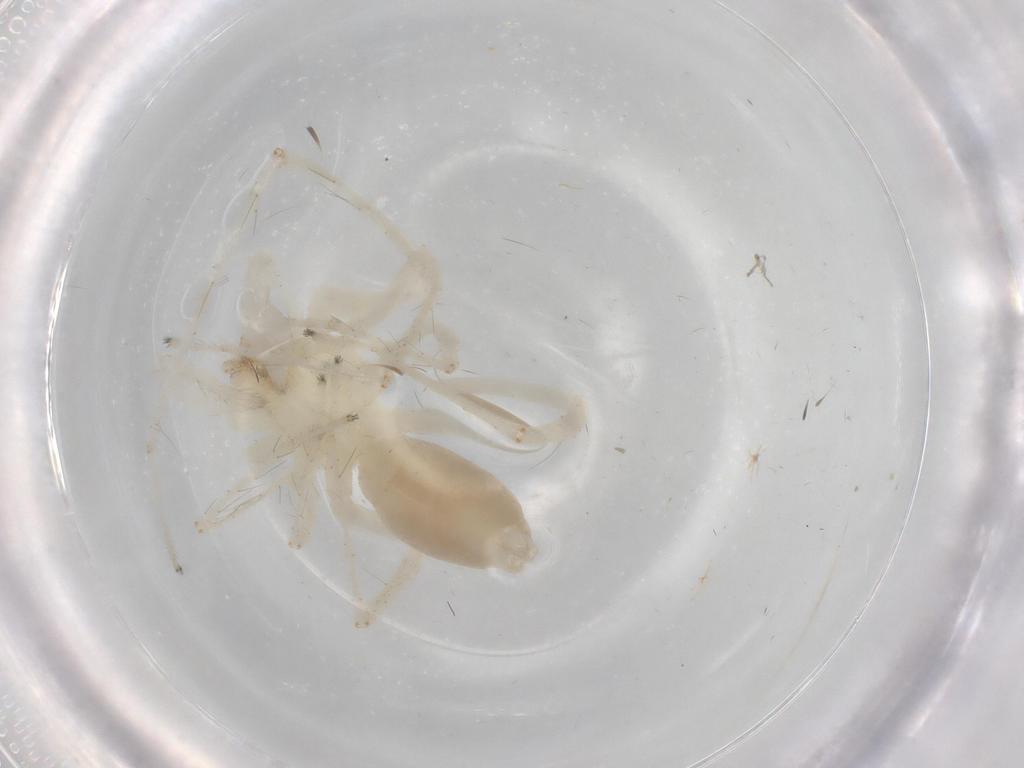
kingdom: Animalia
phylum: Arthropoda
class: Arachnida
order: Araneae
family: Anyphaenidae
